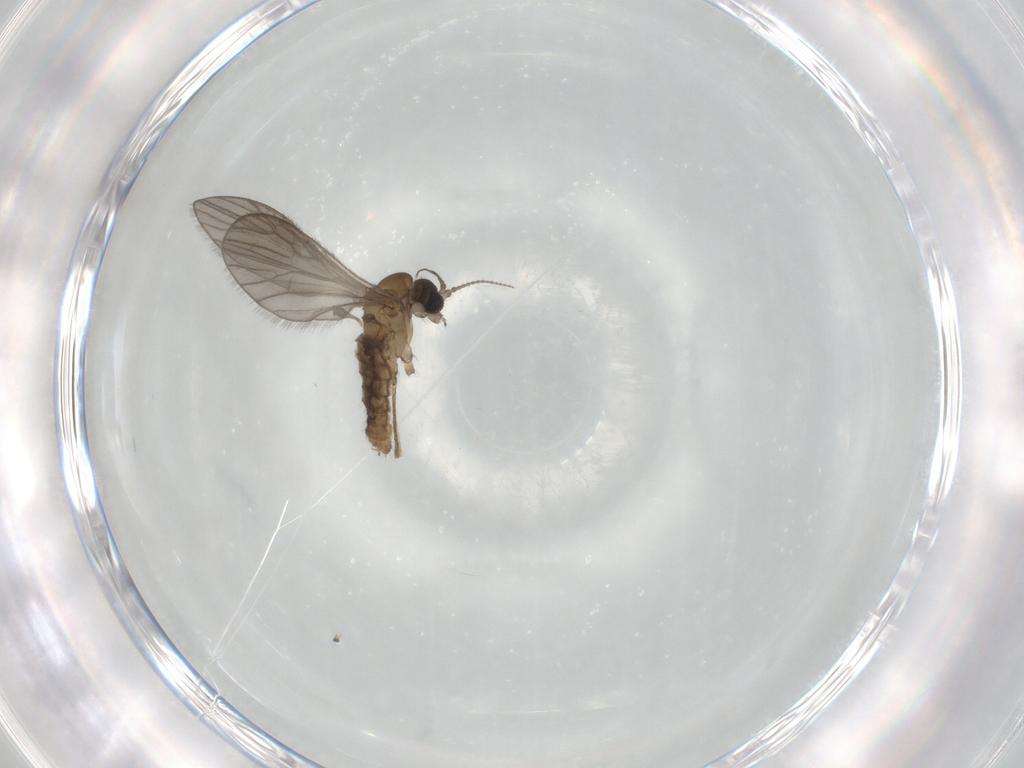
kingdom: Animalia
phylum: Arthropoda
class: Insecta
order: Diptera
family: Limoniidae
